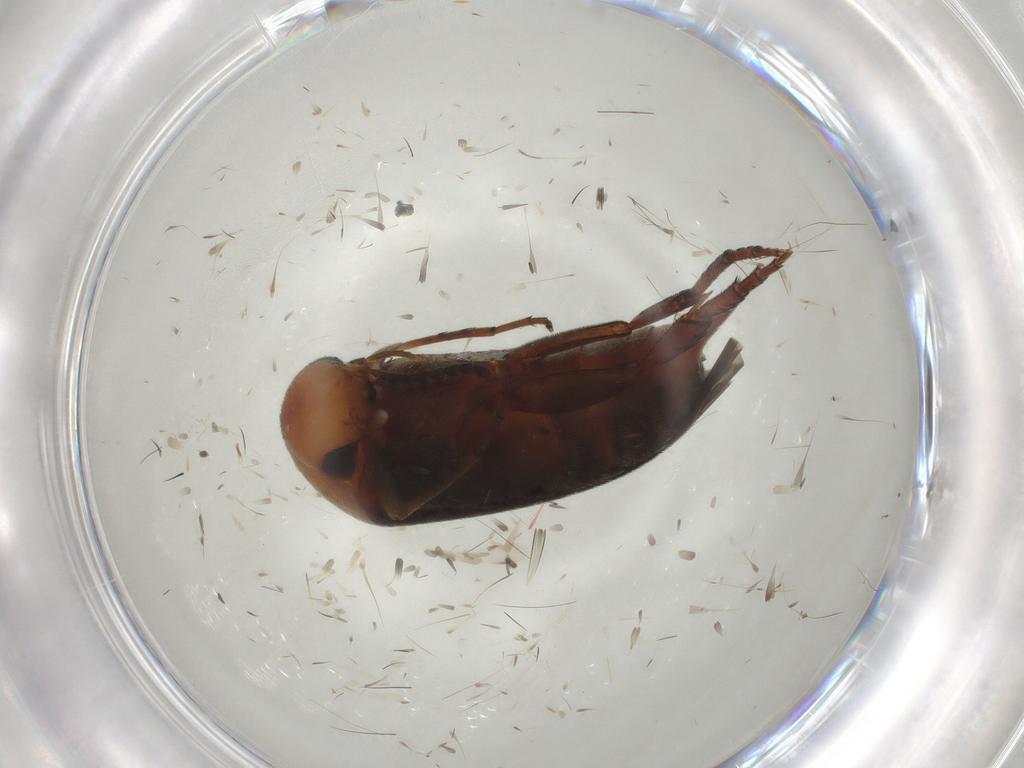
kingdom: Animalia
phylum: Arthropoda
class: Insecta
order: Coleoptera
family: Mordellidae
